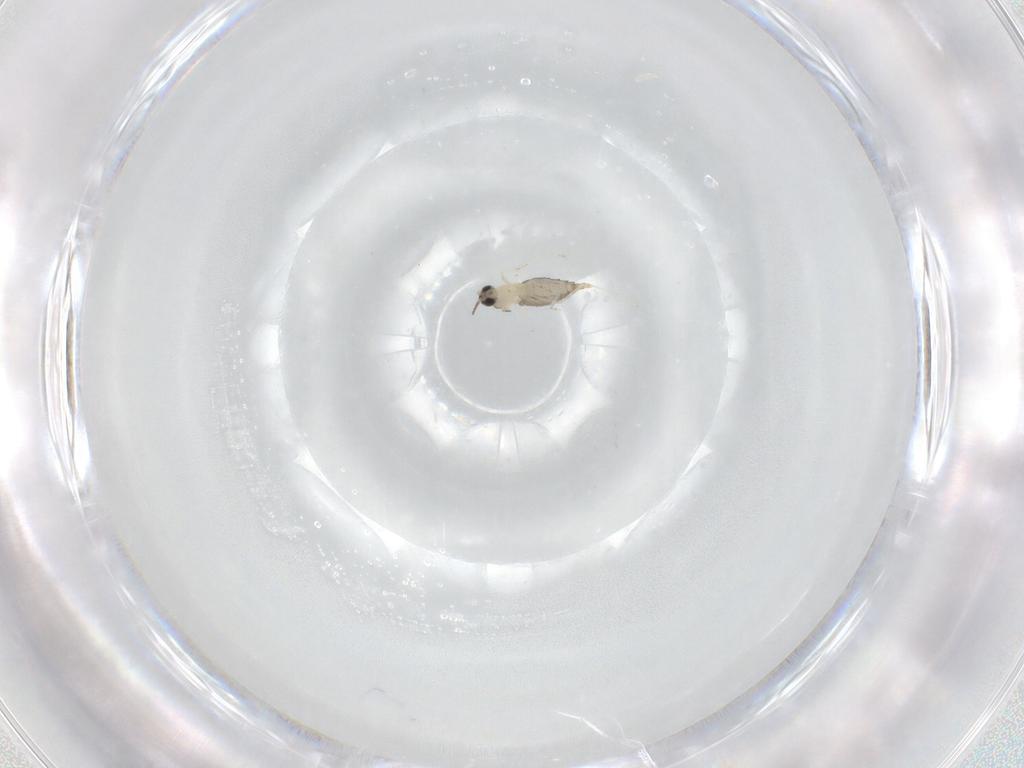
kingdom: Animalia
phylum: Arthropoda
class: Insecta
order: Diptera
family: Cecidomyiidae
